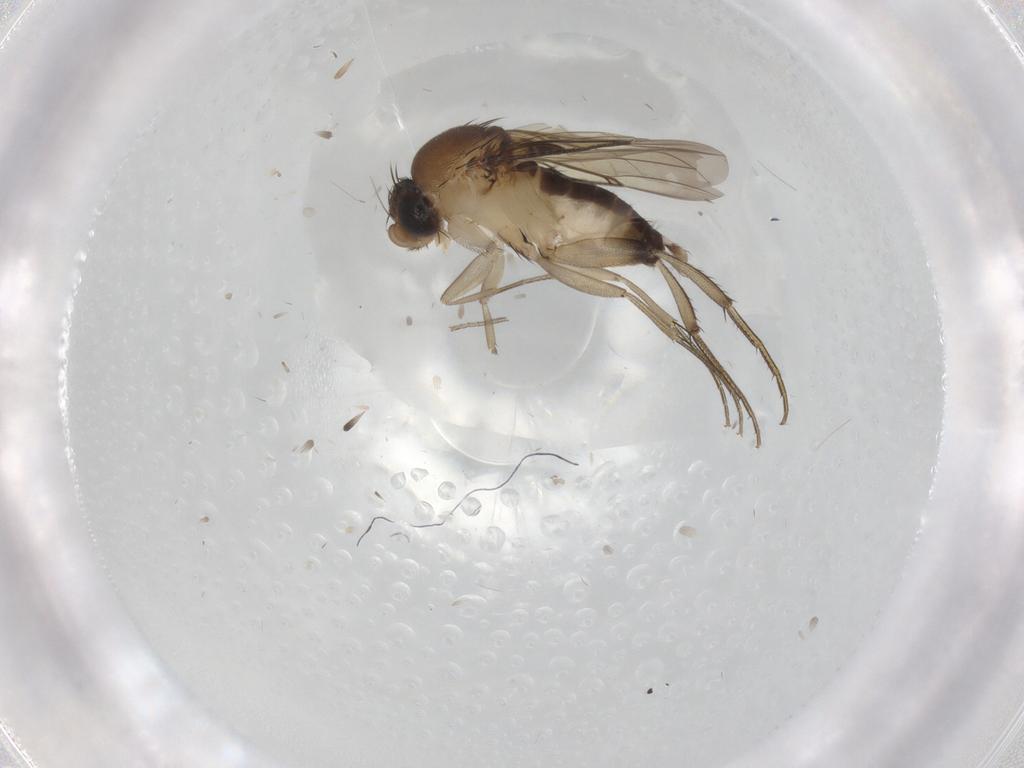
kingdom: Animalia
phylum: Arthropoda
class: Insecta
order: Diptera
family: Phoridae
